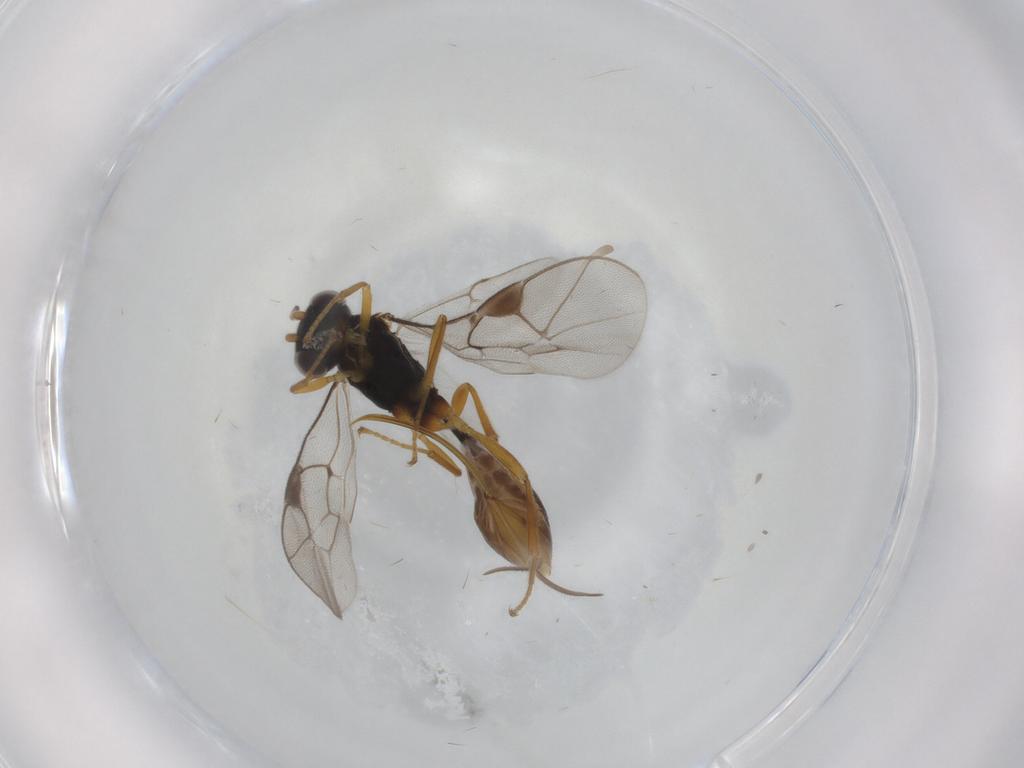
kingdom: Animalia
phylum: Arthropoda
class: Insecta
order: Hymenoptera
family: Ichneumonidae
